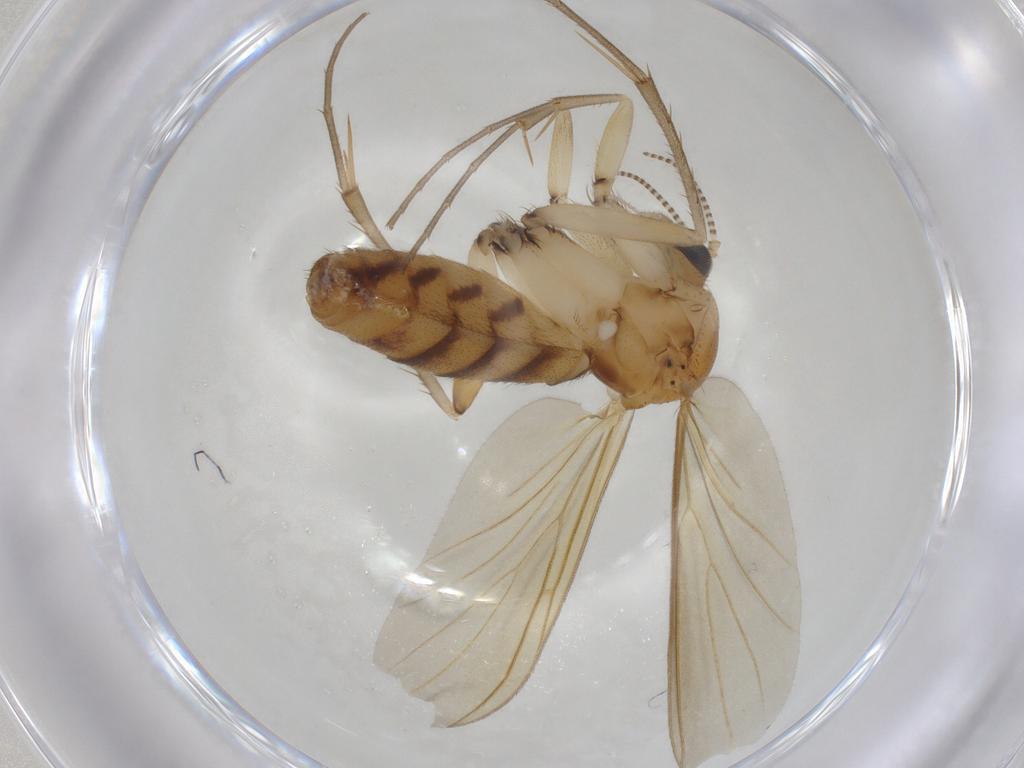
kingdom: Animalia
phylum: Arthropoda
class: Insecta
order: Diptera
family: Mycetophilidae
